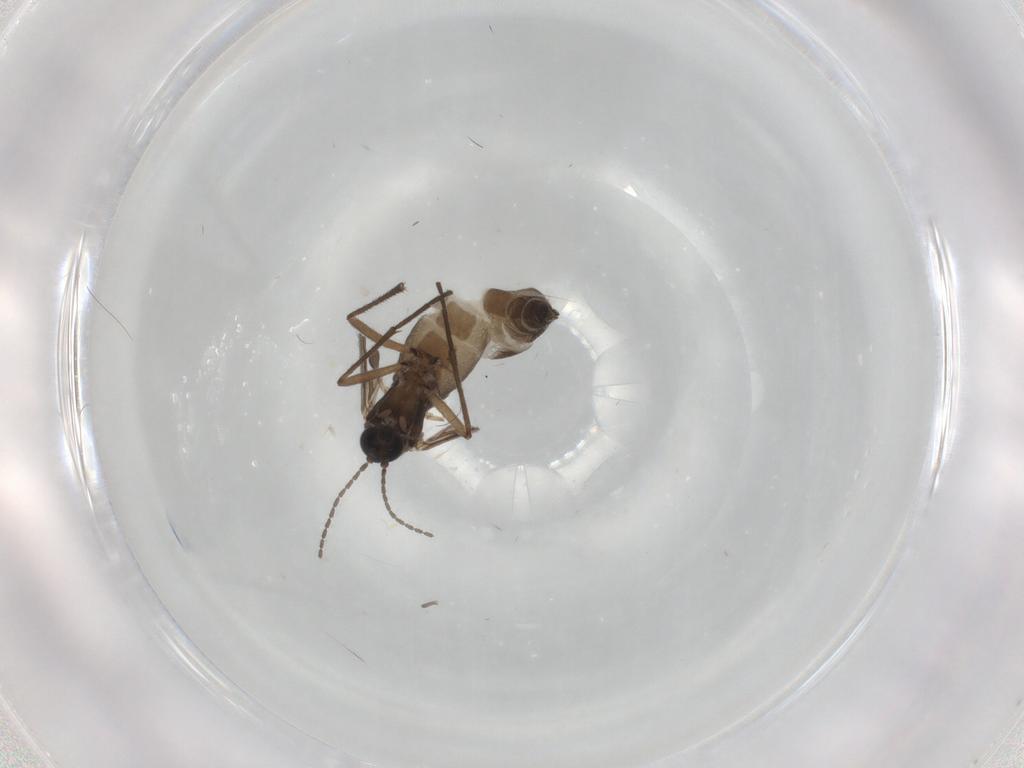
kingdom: Animalia
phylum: Arthropoda
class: Insecta
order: Diptera
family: Sciaridae
